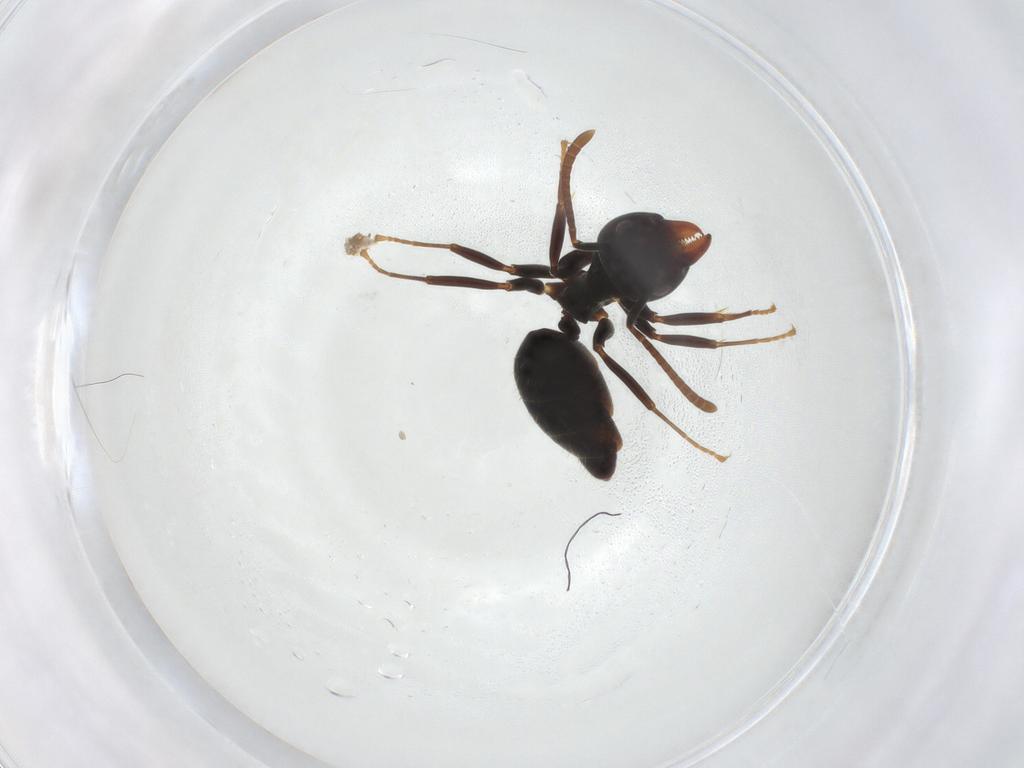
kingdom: Animalia
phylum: Arthropoda
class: Insecta
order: Hymenoptera
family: Formicidae
